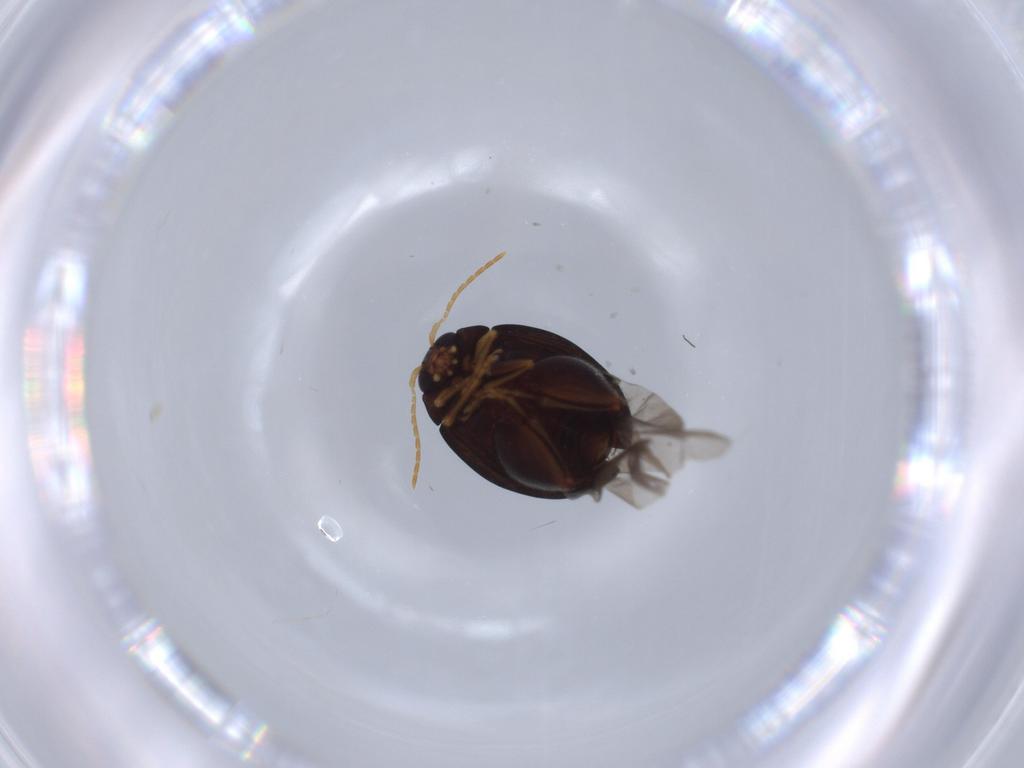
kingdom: Animalia
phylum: Arthropoda
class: Insecta
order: Coleoptera
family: Chrysomelidae
